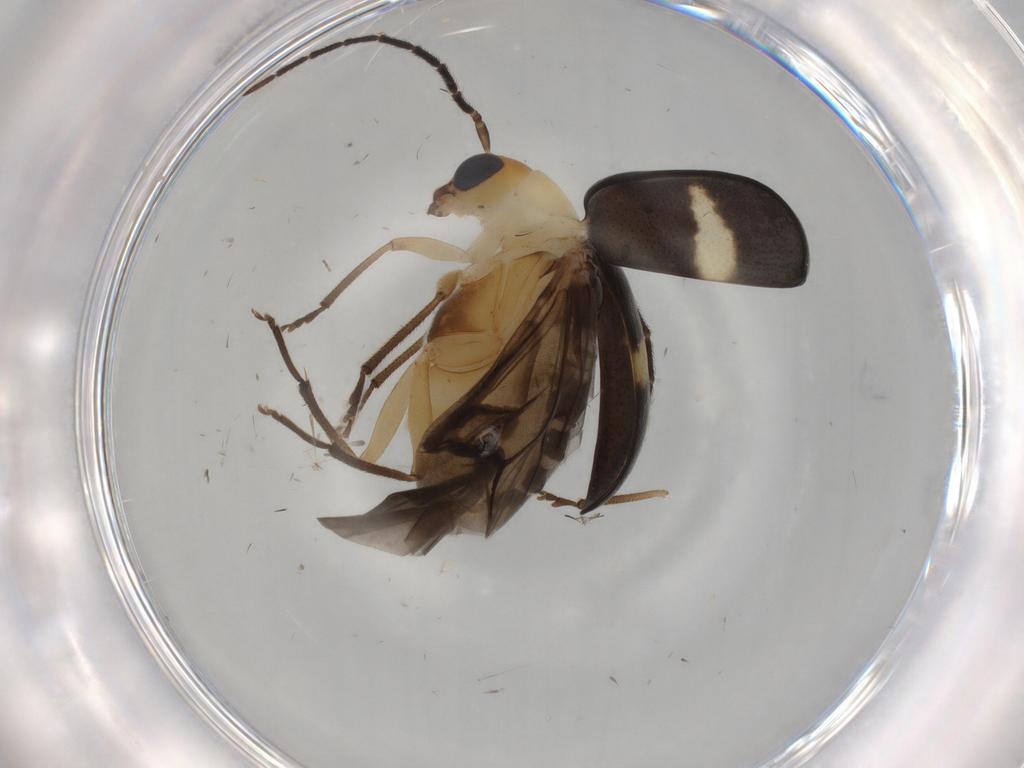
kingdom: Animalia
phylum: Arthropoda
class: Insecta
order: Coleoptera
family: Chrysomelidae
